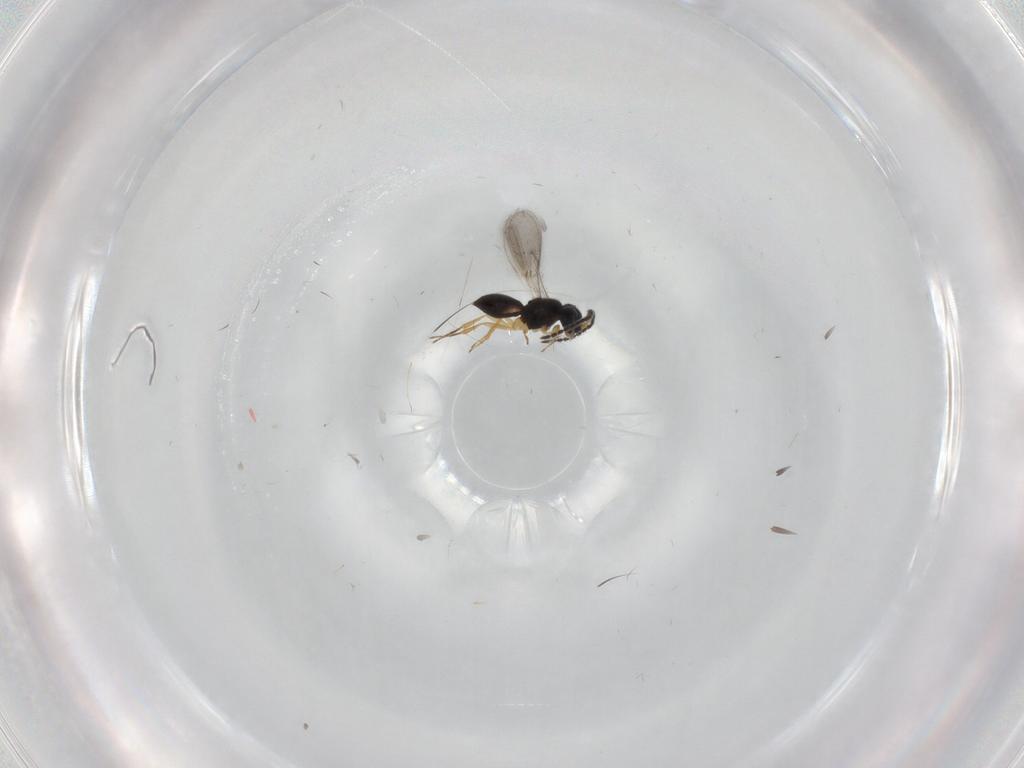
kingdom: Animalia
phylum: Arthropoda
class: Insecta
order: Hymenoptera
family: Scelionidae
